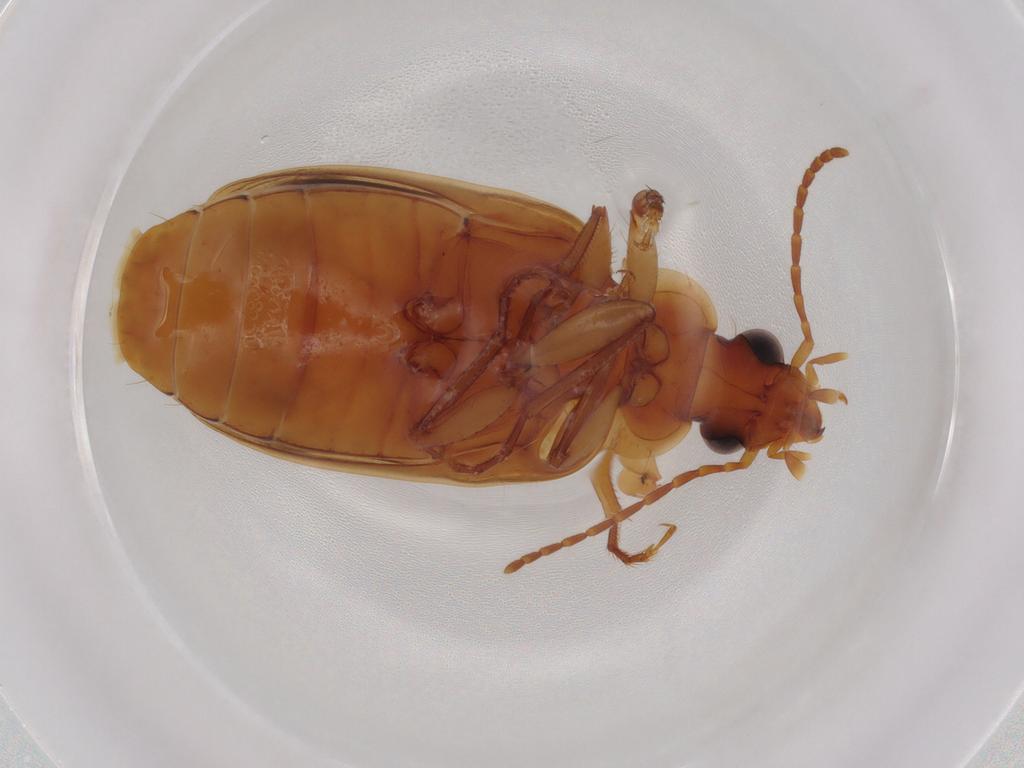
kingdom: Animalia
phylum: Arthropoda
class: Insecta
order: Coleoptera
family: Carabidae
